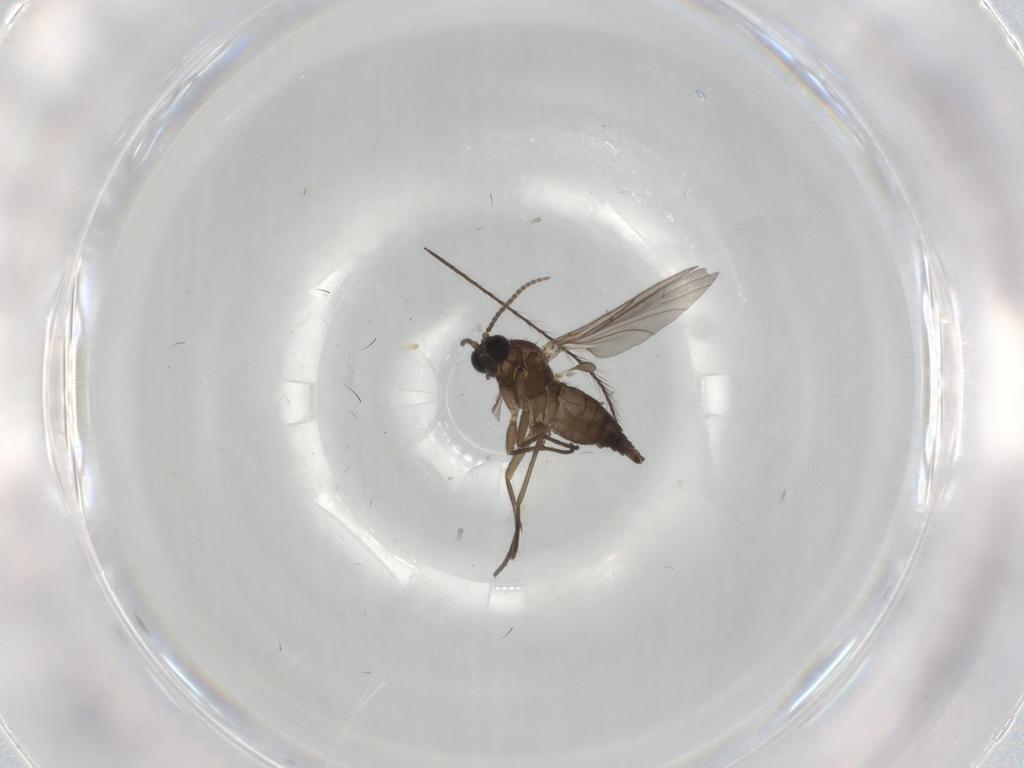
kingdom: Animalia
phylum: Arthropoda
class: Insecta
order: Diptera
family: Sciaridae
